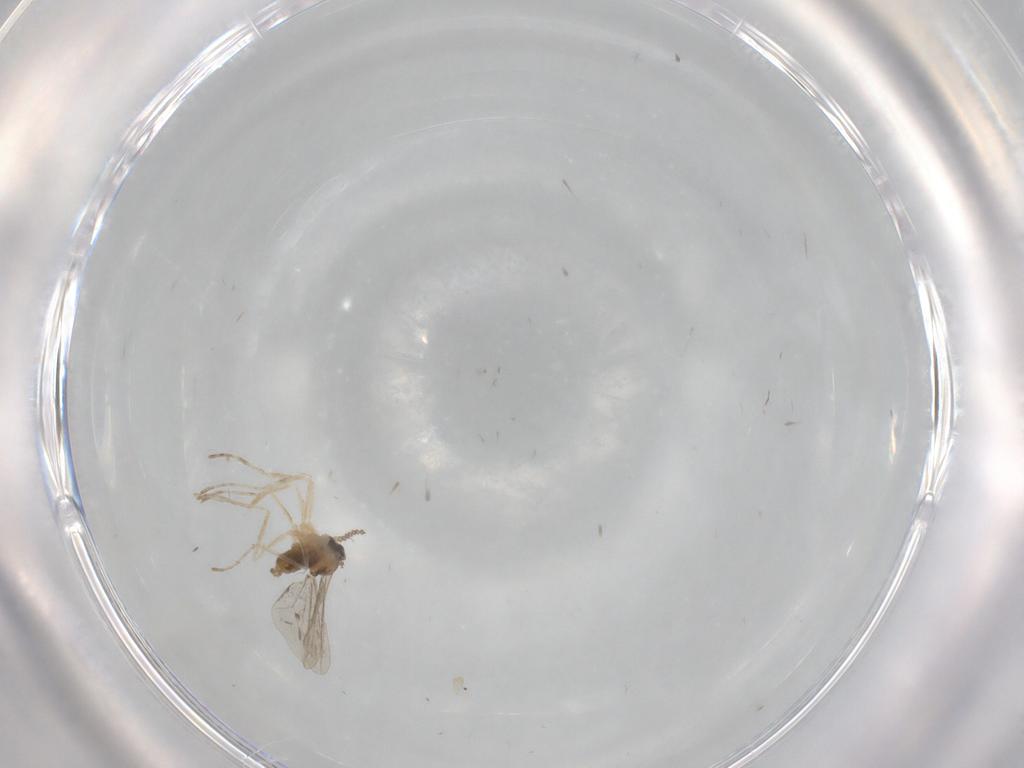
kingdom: Animalia
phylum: Arthropoda
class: Insecta
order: Diptera
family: Cecidomyiidae
